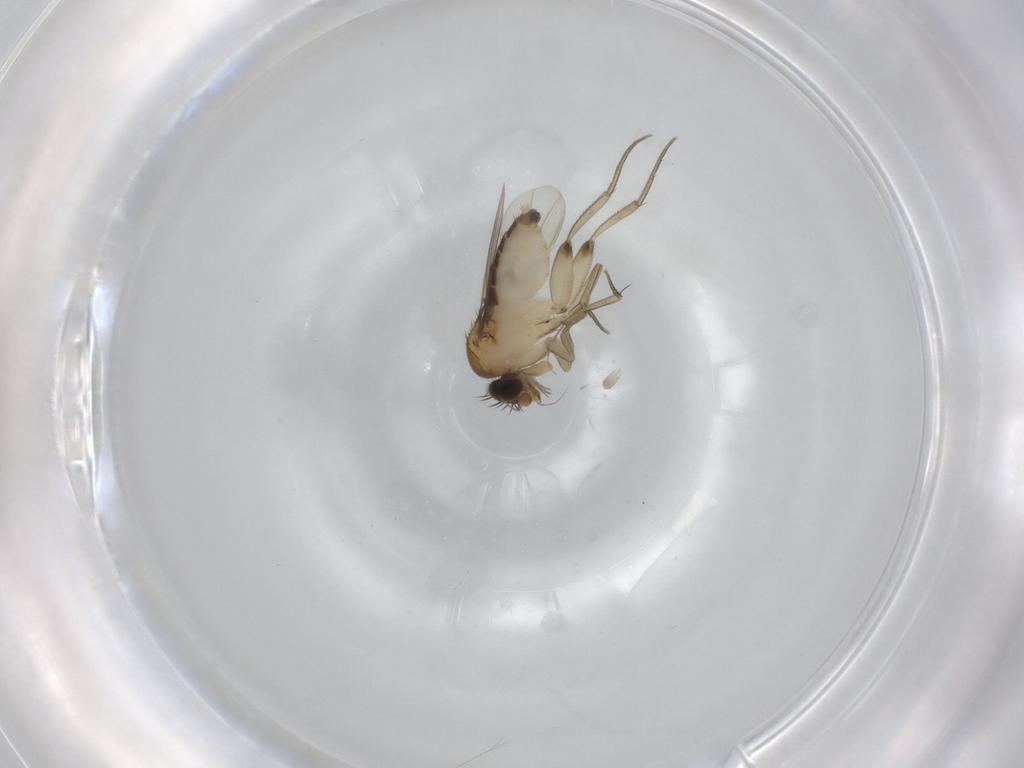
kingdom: Animalia
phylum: Arthropoda
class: Insecta
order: Diptera
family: Phoridae
